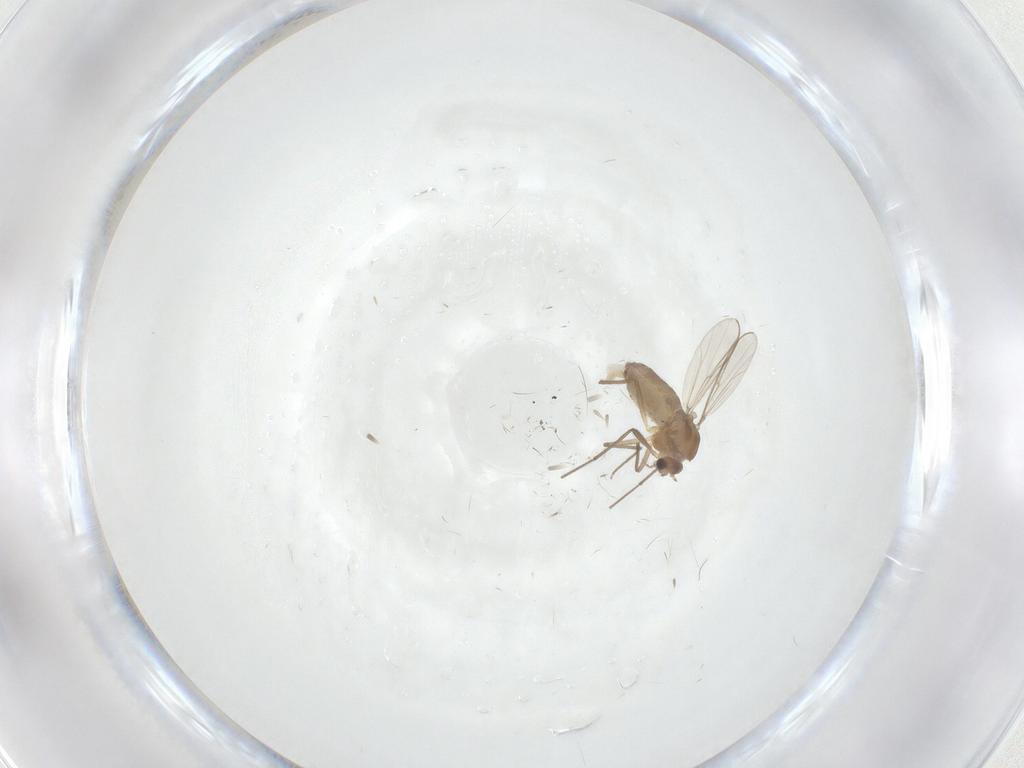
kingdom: Animalia
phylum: Arthropoda
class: Insecta
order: Diptera
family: Chironomidae
